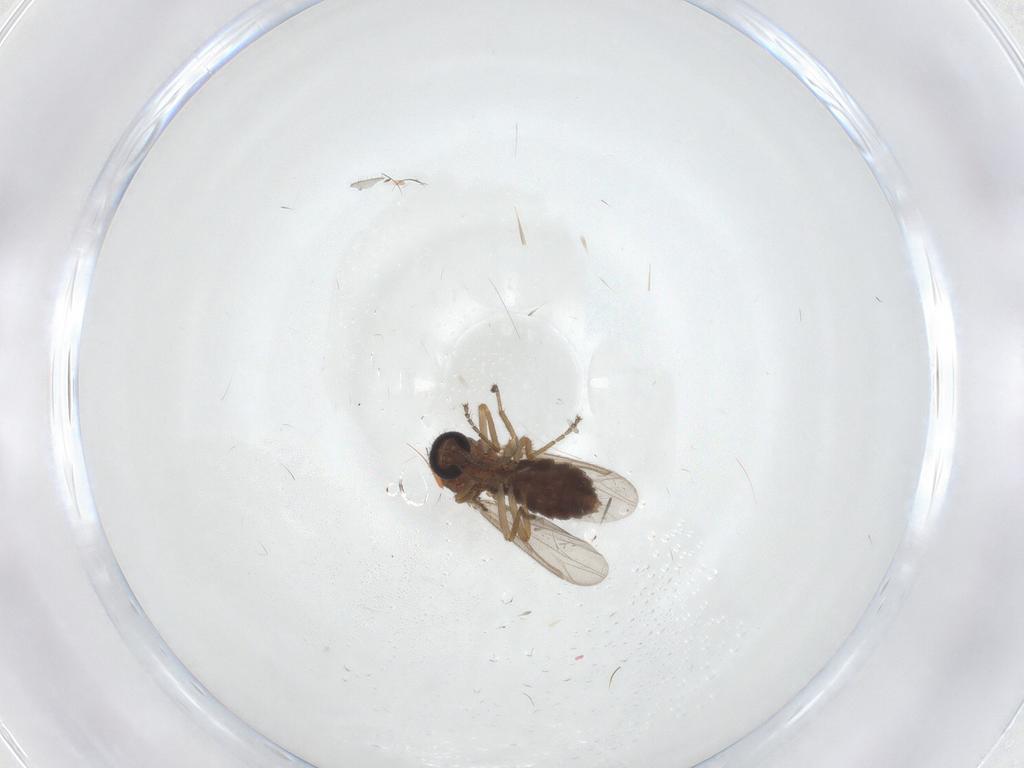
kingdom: Animalia
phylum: Arthropoda
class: Insecta
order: Diptera
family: Ceratopogonidae
